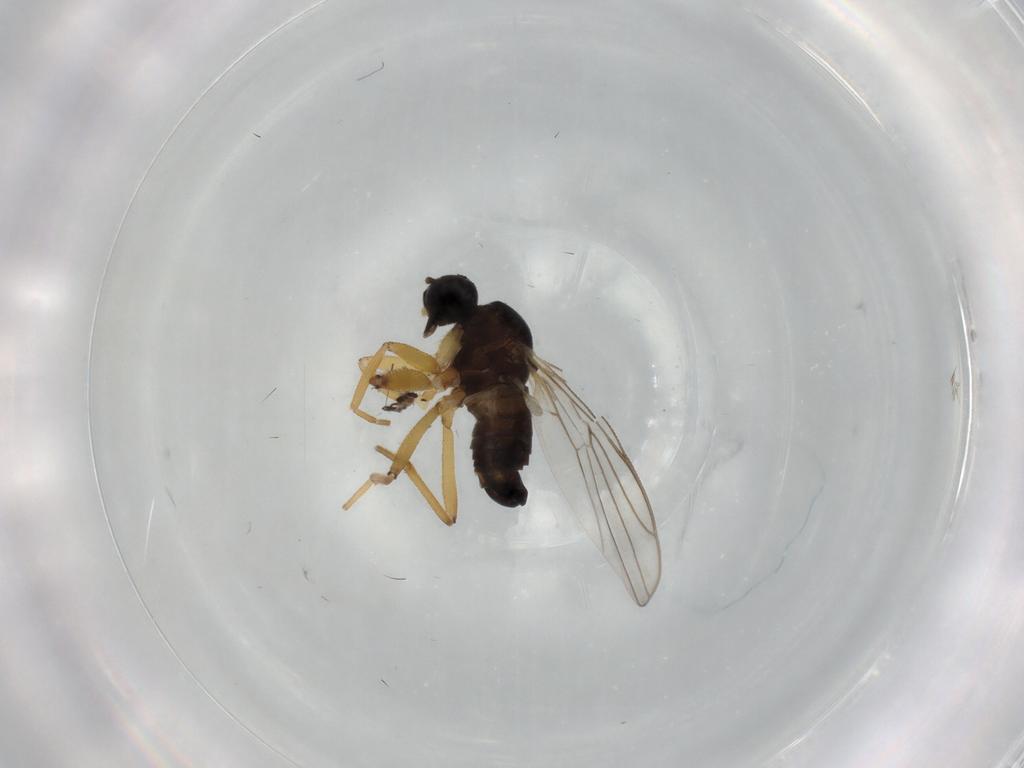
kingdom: Animalia
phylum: Arthropoda
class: Insecta
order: Diptera
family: Hybotidae
